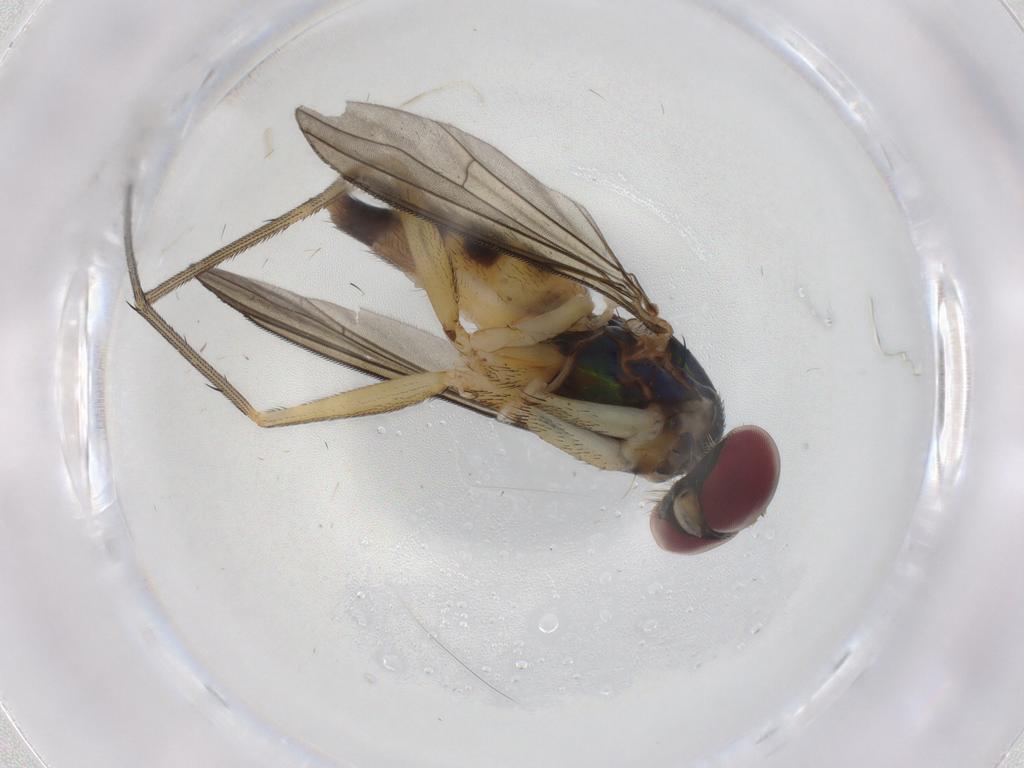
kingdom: Animalia
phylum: Arthropoda
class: Insecta
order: Diptera
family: Dolichopodidae
